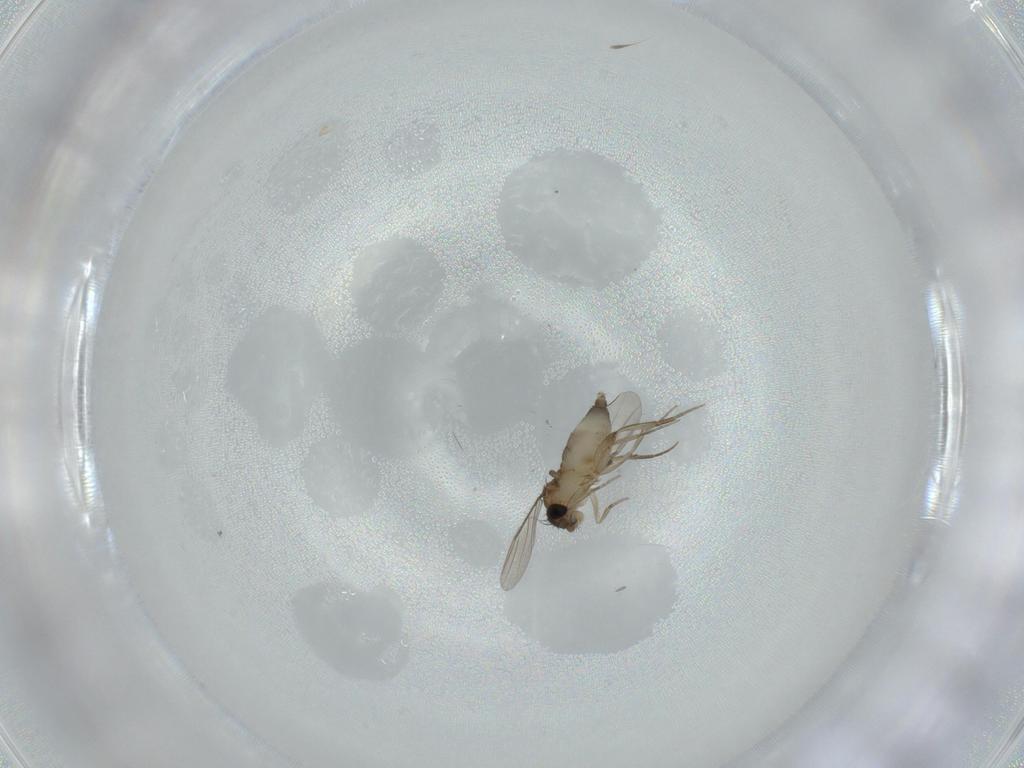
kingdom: Animalia
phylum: Arthropoda
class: Insecta
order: Diptera
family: Phoridae
